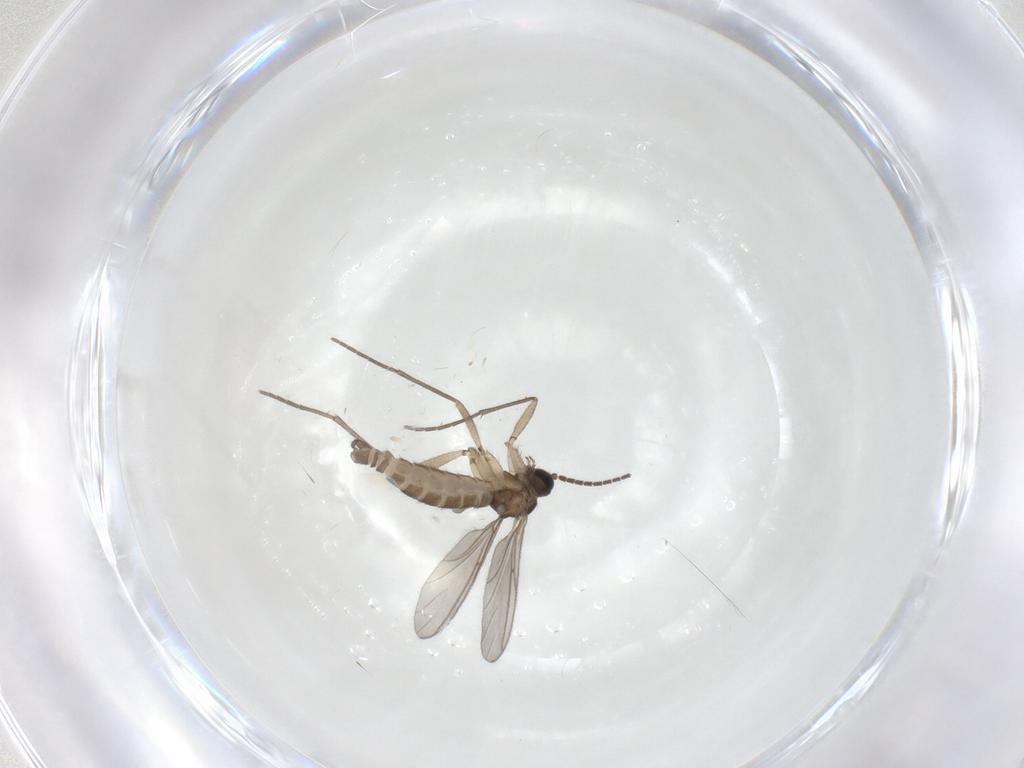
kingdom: Animalia
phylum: Arthropoda
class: Insecta
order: Diptera
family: Sciaridae
